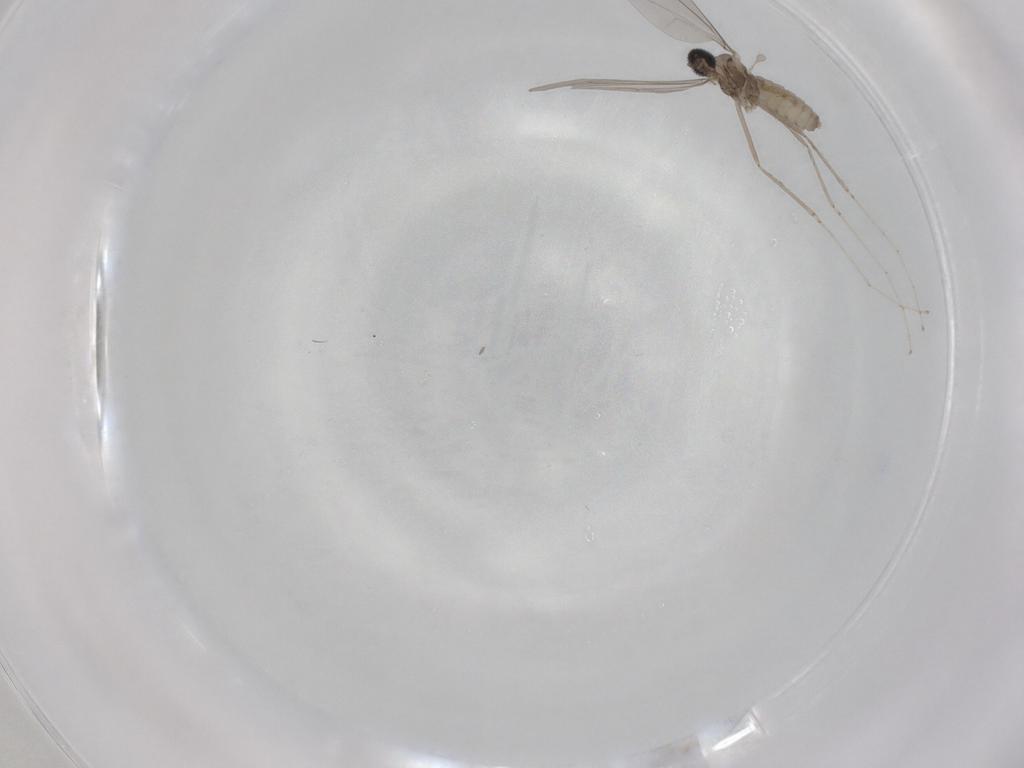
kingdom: Animalia
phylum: Arthropoda
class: Insecta
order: Diptera
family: Cecidomyiidae
